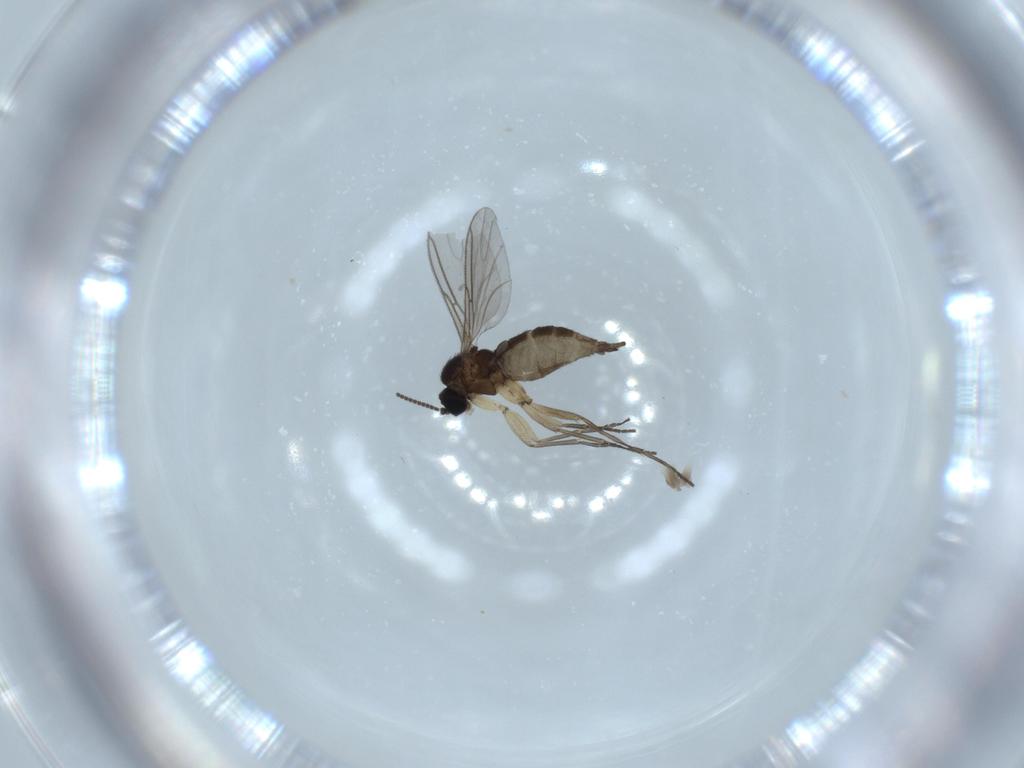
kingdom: Animalia
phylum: Arthropoda
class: Insecta
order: Diptera
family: Sciaridae
